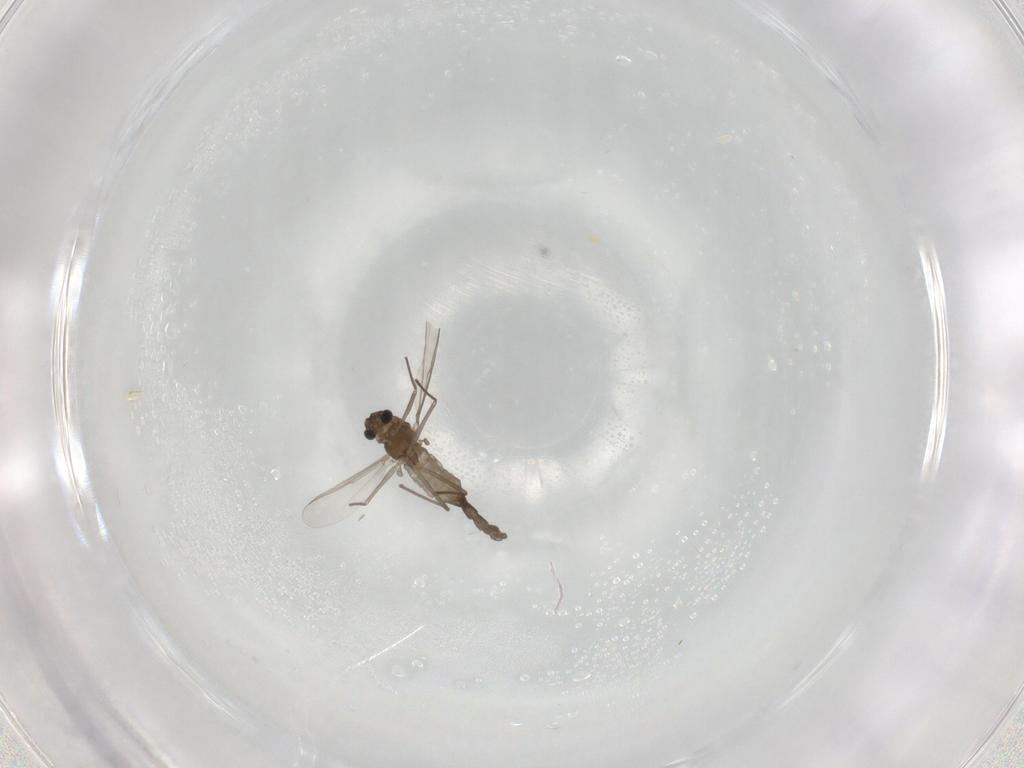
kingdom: Animalia
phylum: Arthropoda
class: Insecta
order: Diptera
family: Chironomidae
